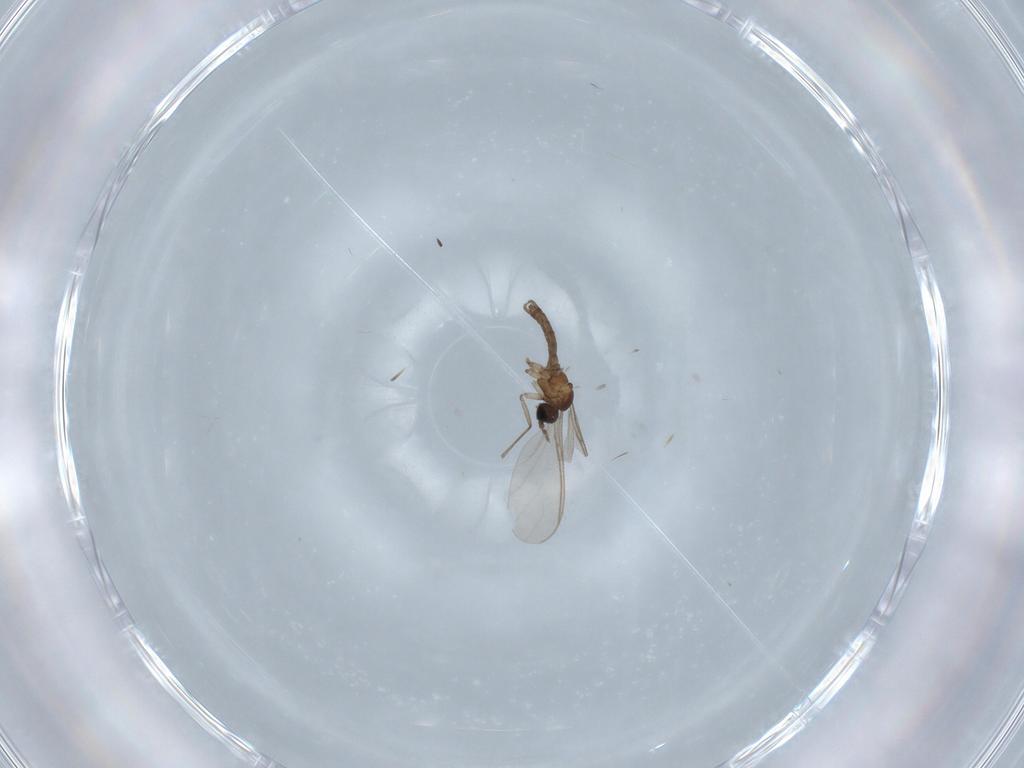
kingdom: Animalia
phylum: Arthropoda
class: Insecta
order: Diptera
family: Sciaridae
